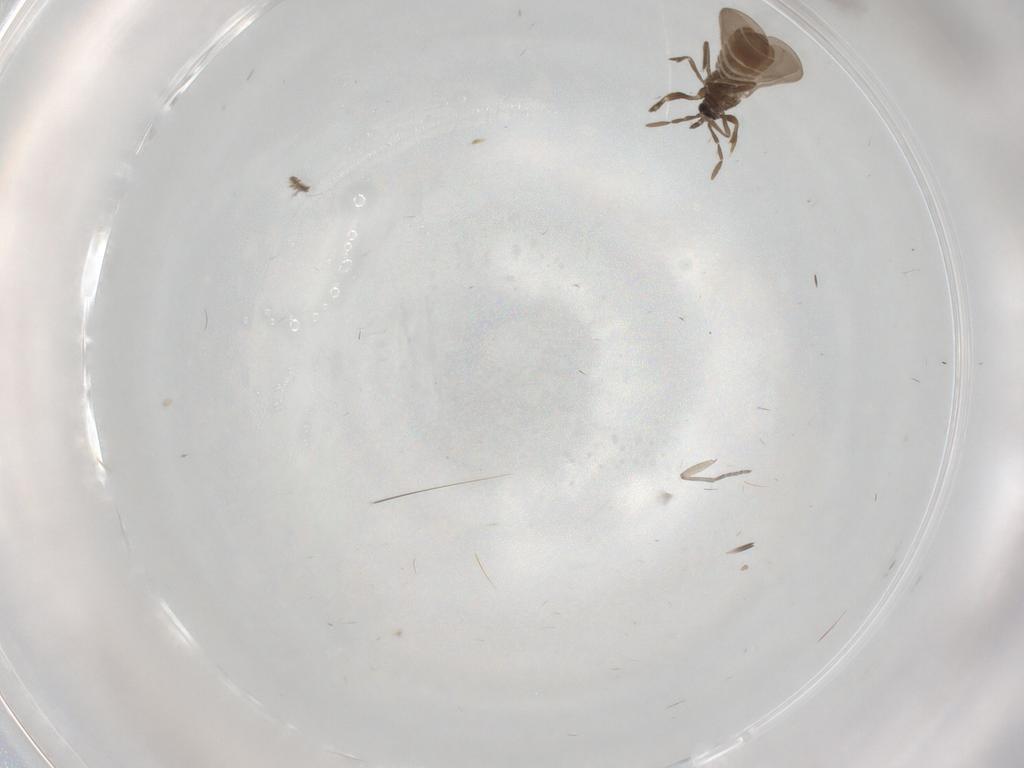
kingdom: Animalia
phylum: Arthropoda
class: Insecta
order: Hemiptera
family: Enicocephalidae
